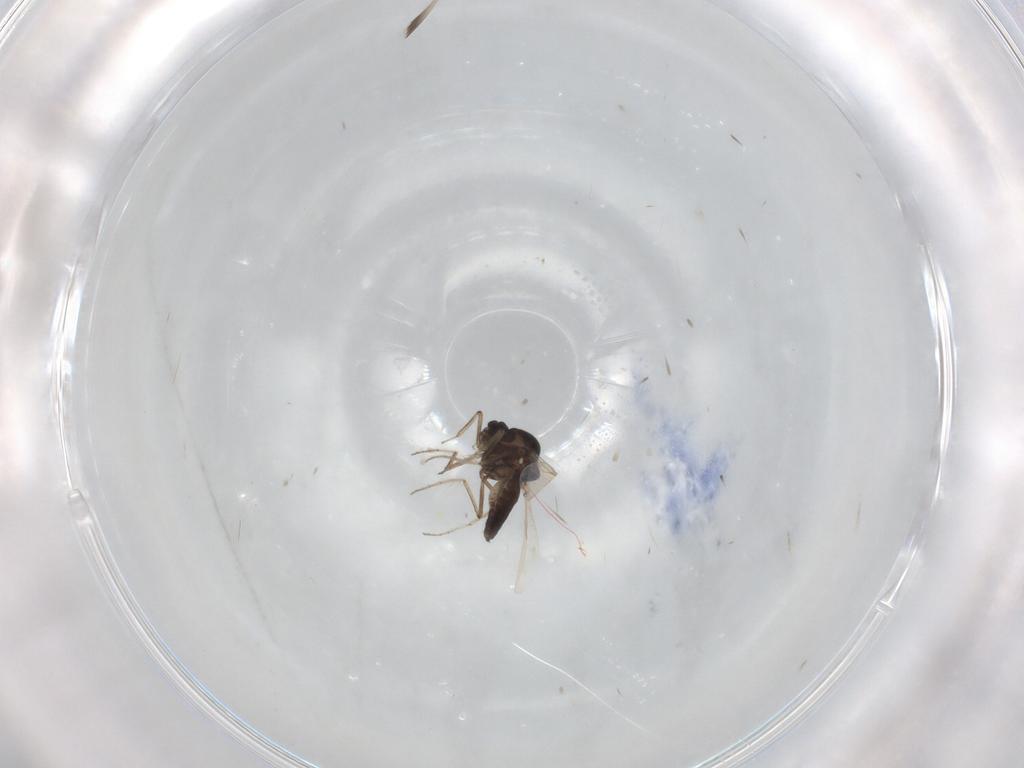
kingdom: Animalia
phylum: Arthropoda
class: Insecta
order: Diptera
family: Ceratopogonidae
